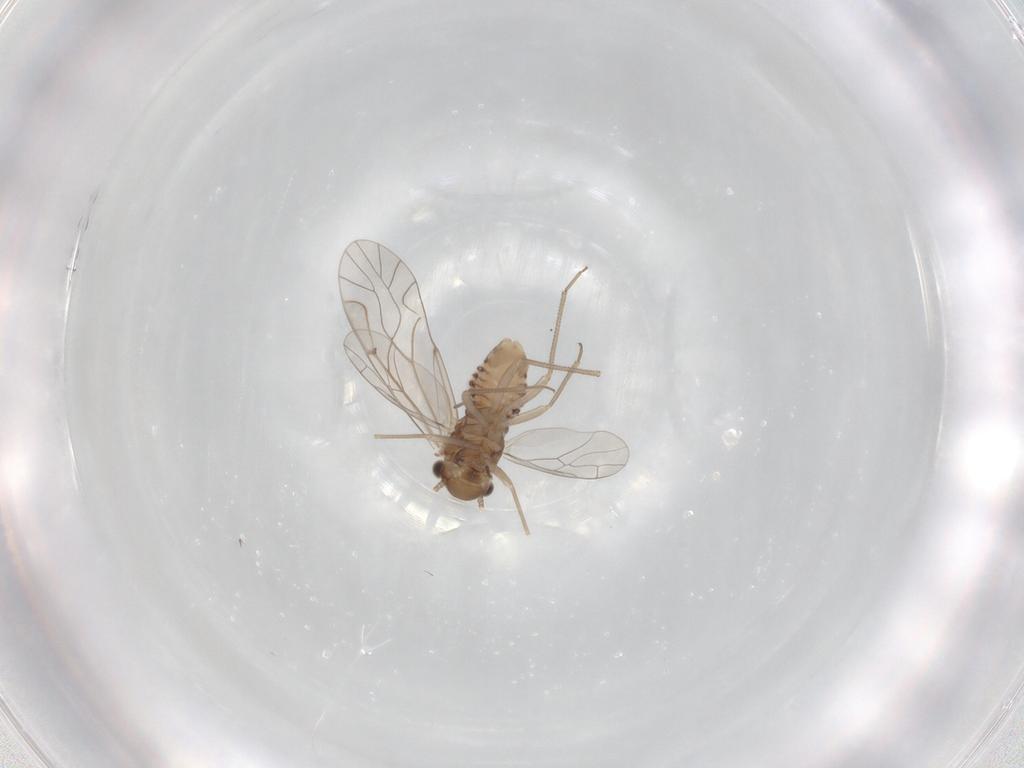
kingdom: Animalia
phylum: Arthropoda
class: Insecta
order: Psocodea
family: Lachesillidae
